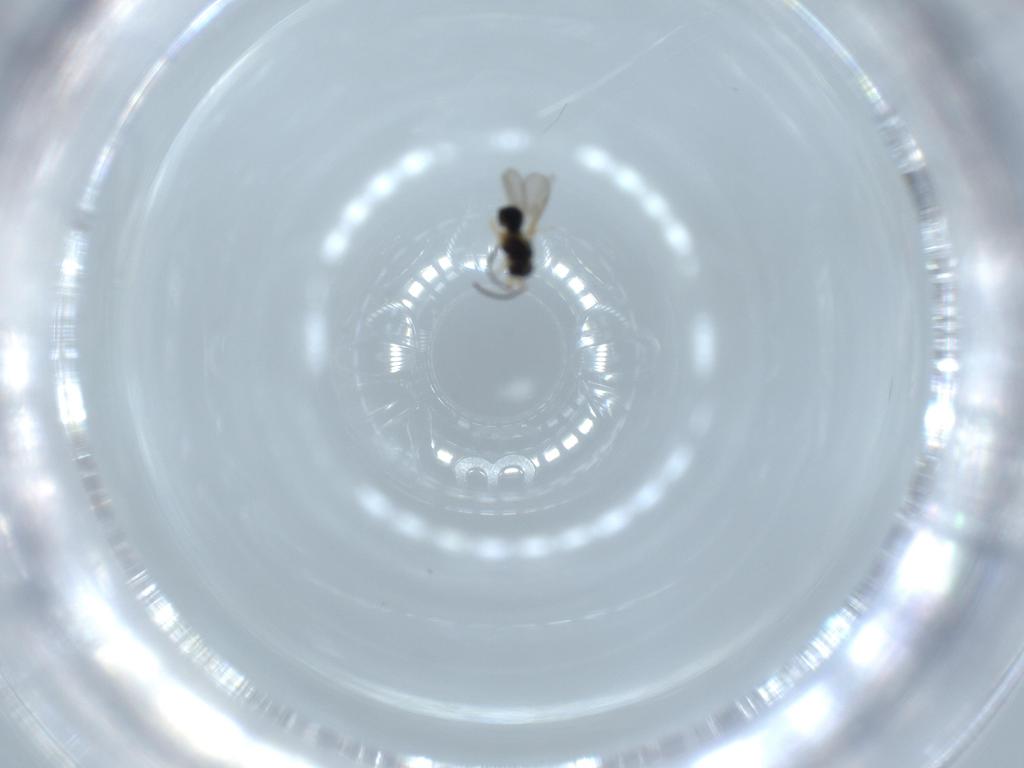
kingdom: Animalia
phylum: Arthropoda
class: Insecta
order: Hymenoptera
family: Scelionidae
